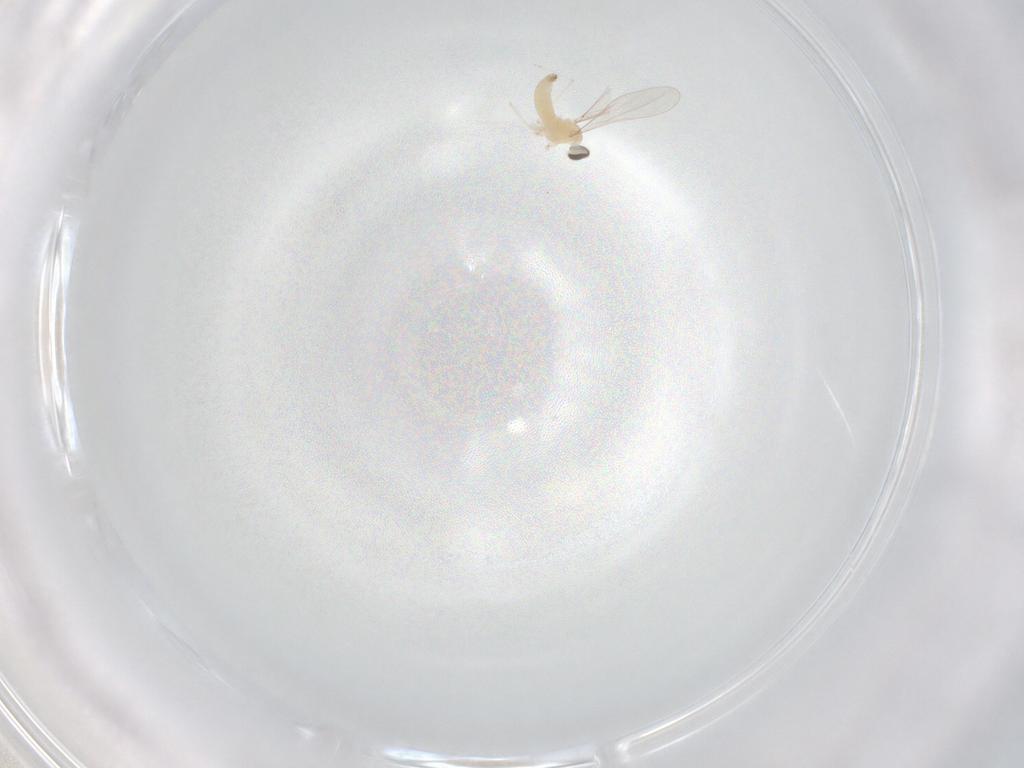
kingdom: Animalia
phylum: Arthropoda
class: Insecta
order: Diptera
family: Cecidomyiidae
